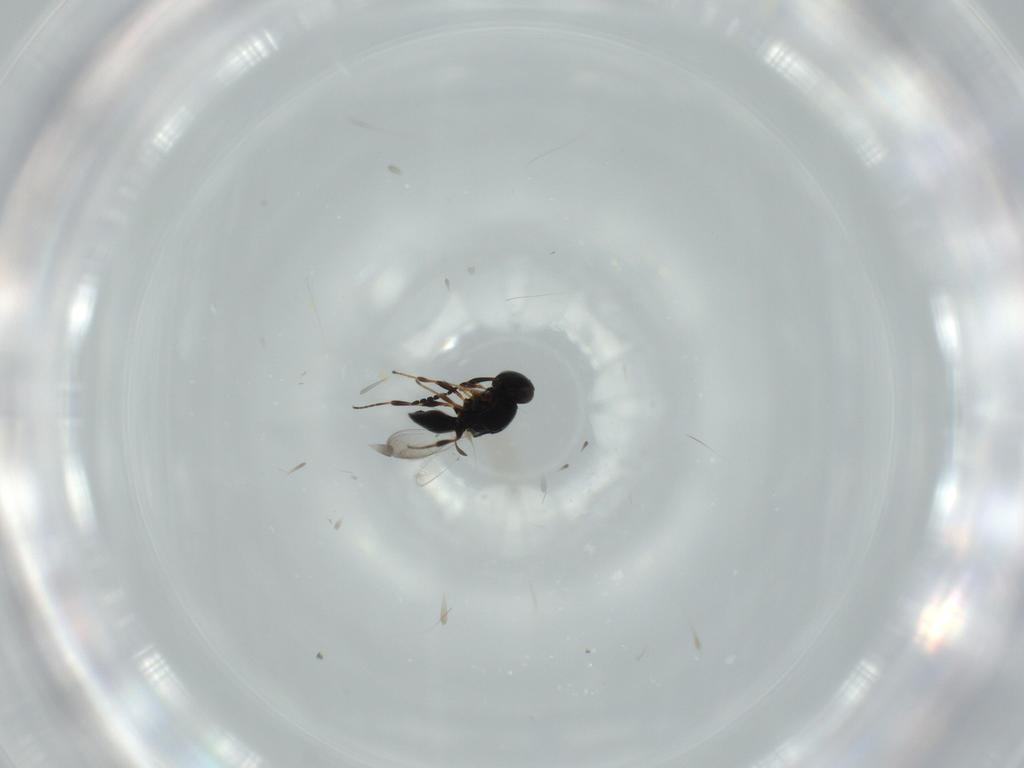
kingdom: Animalia
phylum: Arthropoda
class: Insecta
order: Hymenoptera
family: Platygastridae
